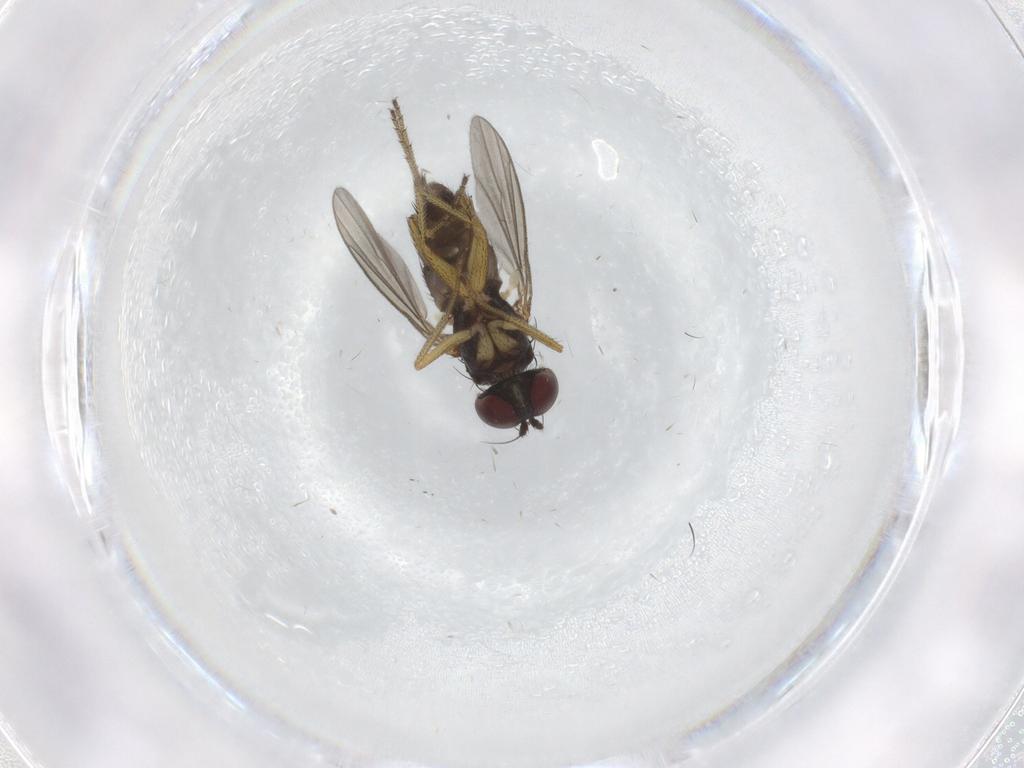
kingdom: Animalia
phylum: Arthropoda
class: Insecta
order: Diptera
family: Dolichopodidae
